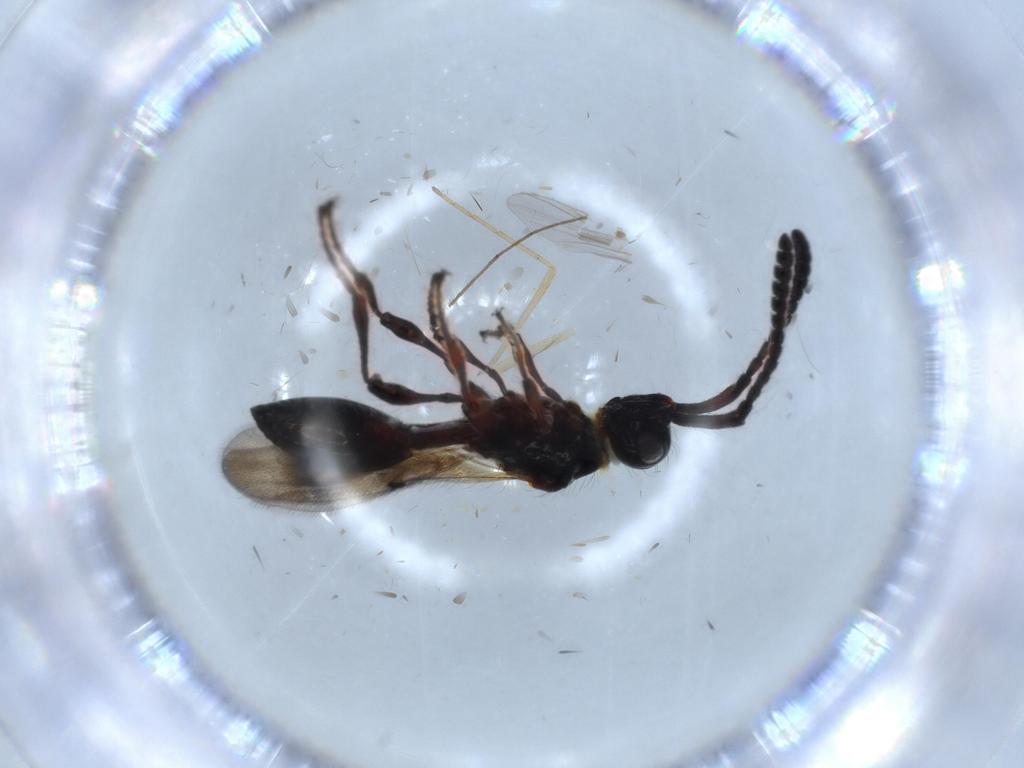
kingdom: Animalia
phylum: Arthropoda
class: Insecta
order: Hymenoptera
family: Diapriidae
